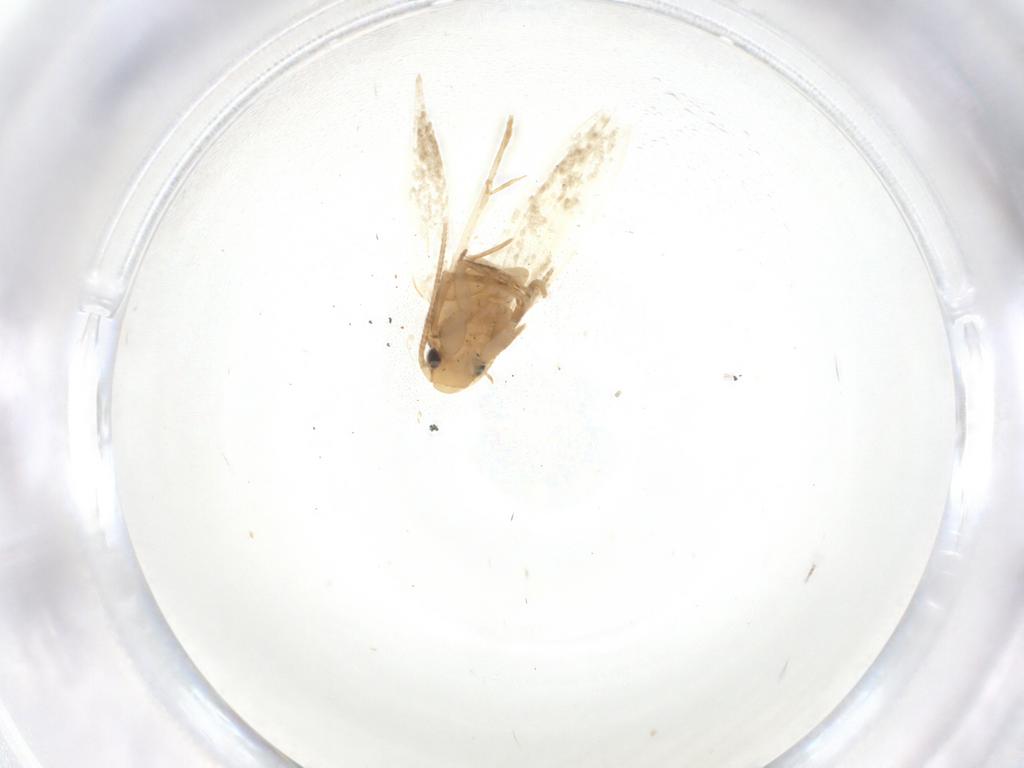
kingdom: Animalia
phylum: Arthropoda
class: Insecta
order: Lepidoptera
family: Tineidae
